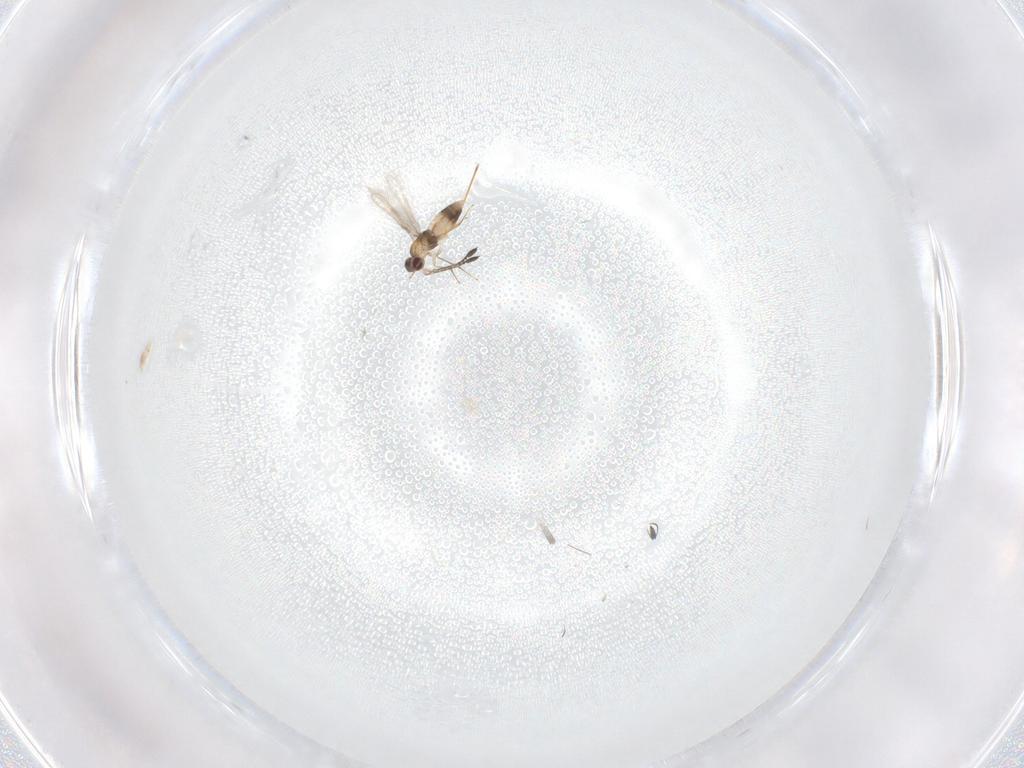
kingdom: Animalia
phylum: Arthropoda
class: Insecta
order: Hymenoptera
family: Mymaridae
